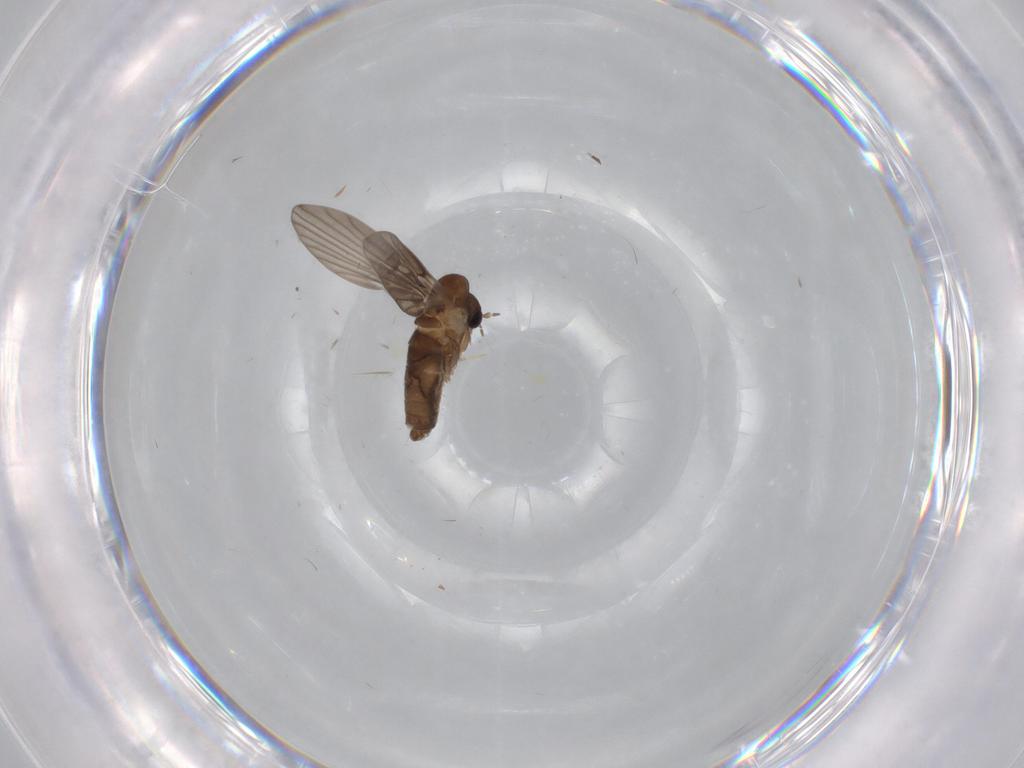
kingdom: Animalia
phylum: Arthropoda
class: Insecta
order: Diptera
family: Psychodidae
